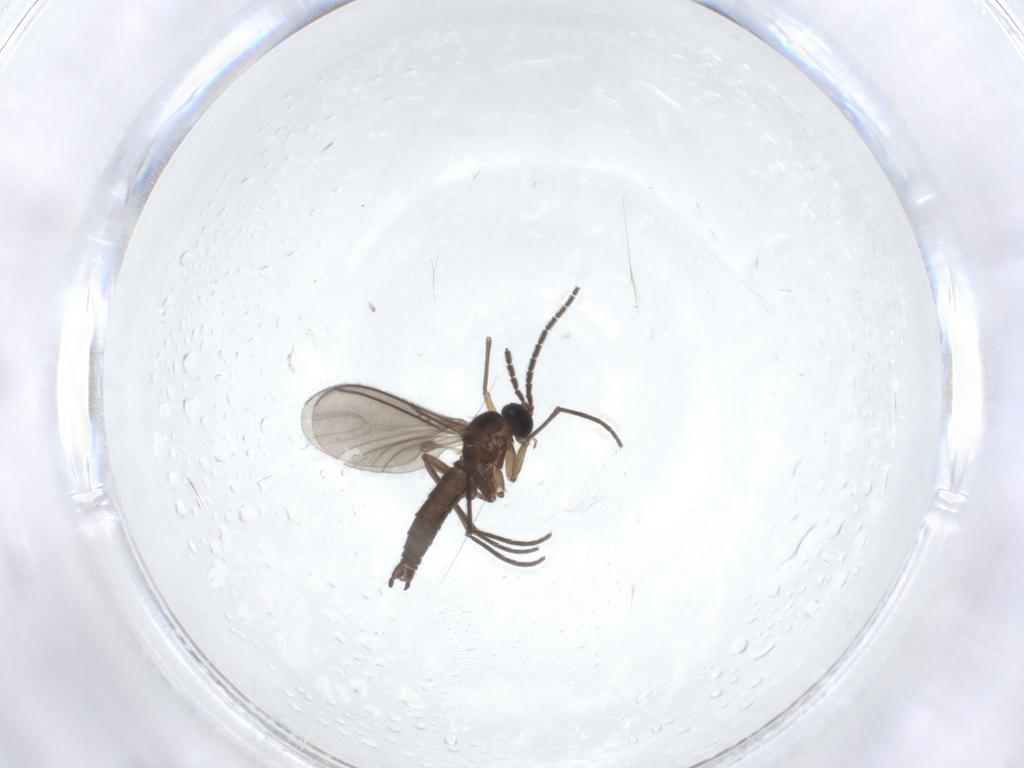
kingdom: Animalia
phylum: Arthropoda
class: Insecta
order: Diptera
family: Sciaridae
